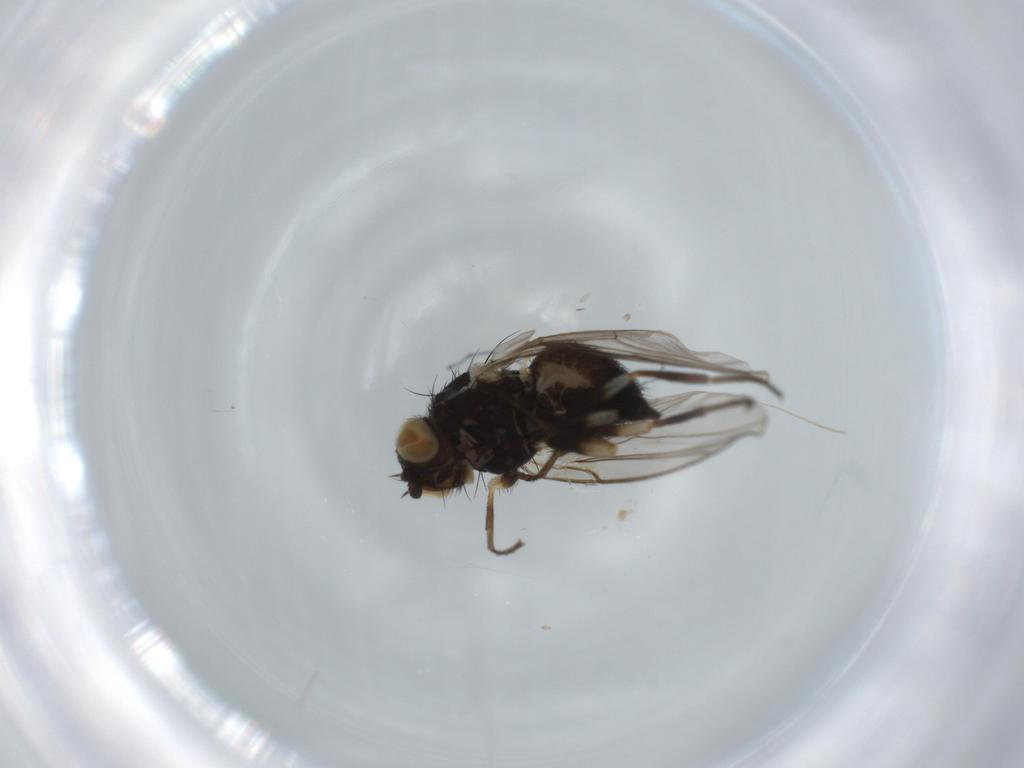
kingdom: Animalia
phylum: Arthropoda
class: Insecta
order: Diptera
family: Agromyzidae
